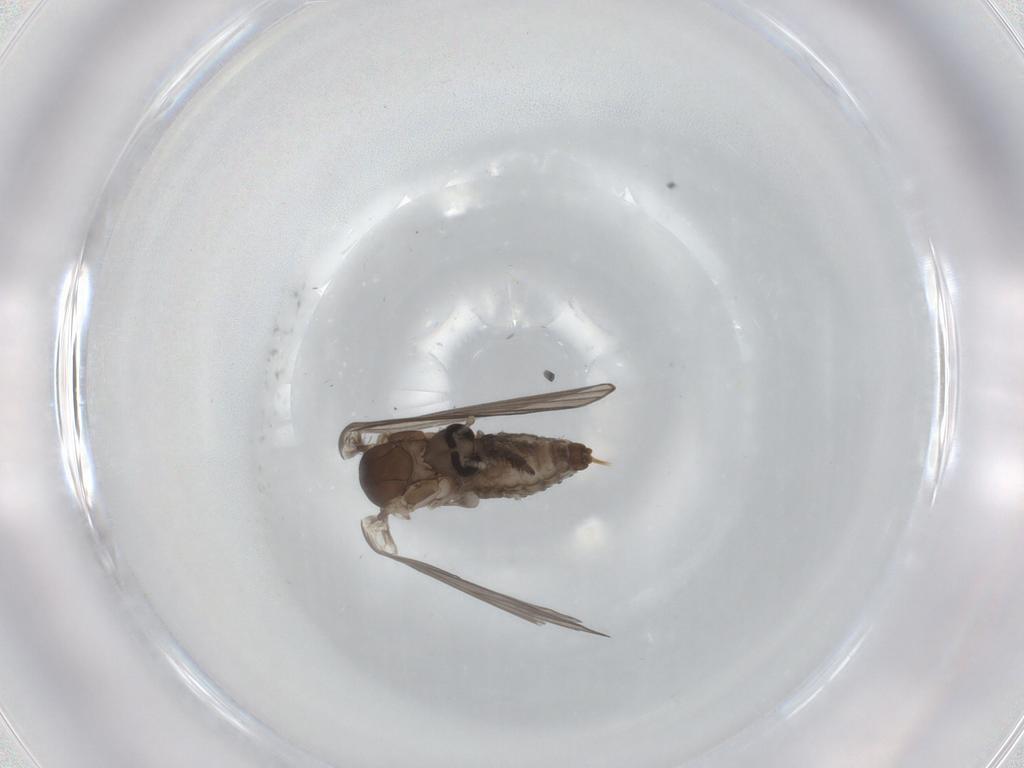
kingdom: Animalia
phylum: Arthropoda
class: Insecta
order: Diptera
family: Psychodidae
